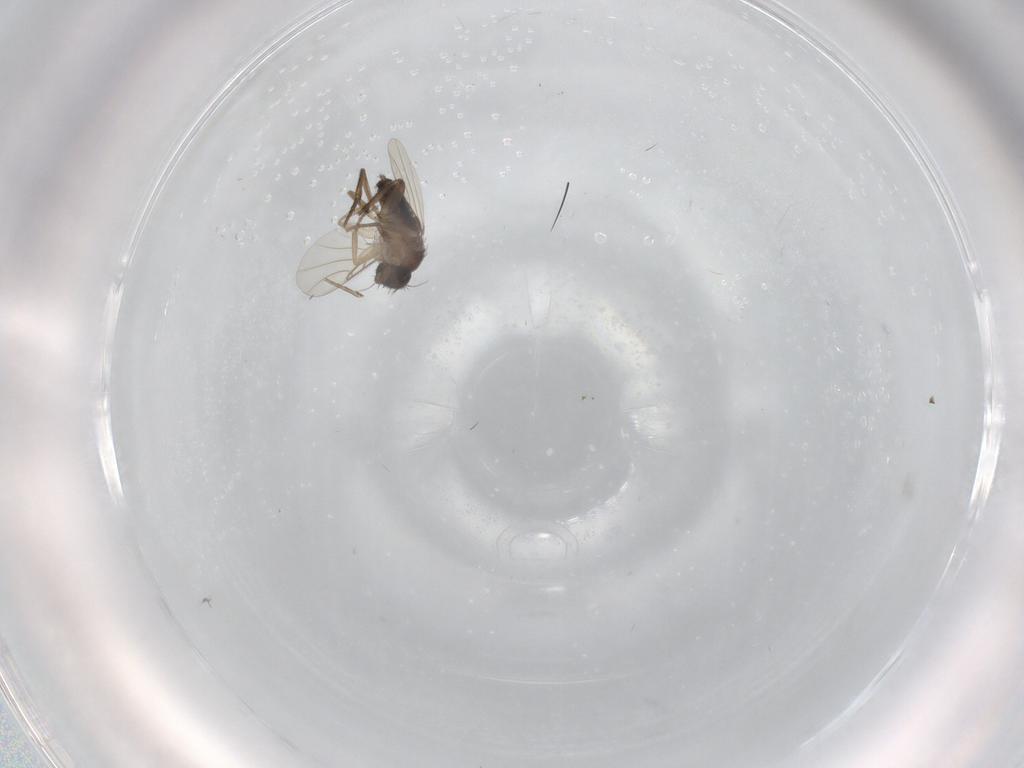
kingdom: Animalia
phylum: Arthropoda
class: Insecta
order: Diptera
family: Phoridae
